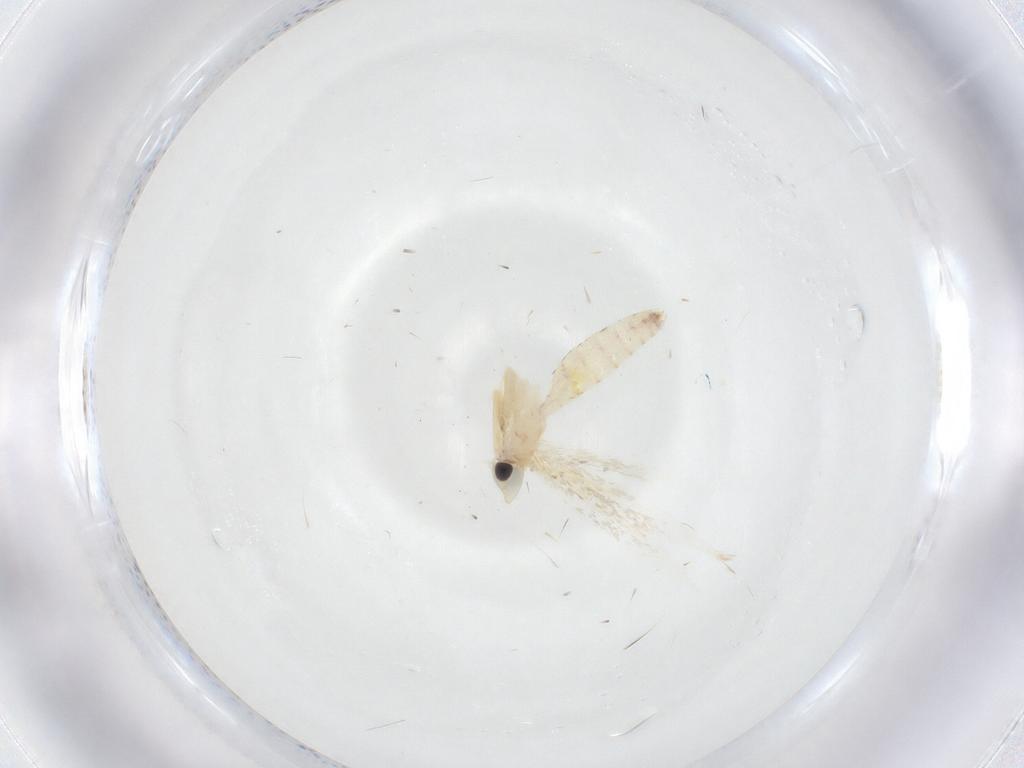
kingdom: Animalia
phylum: Arthropoda
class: Insecta
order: Lepidoptera
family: Tineidae
